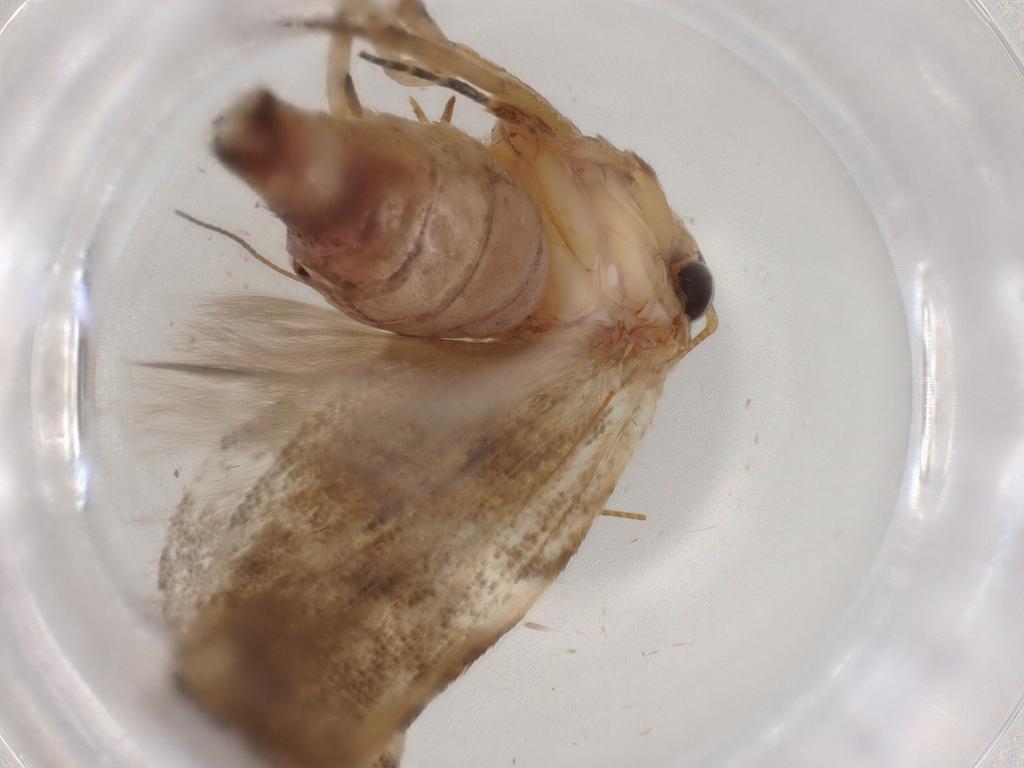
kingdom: Animalia
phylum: Arthropoda
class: Insecta
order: Lepidoptera
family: Gelechiidae
